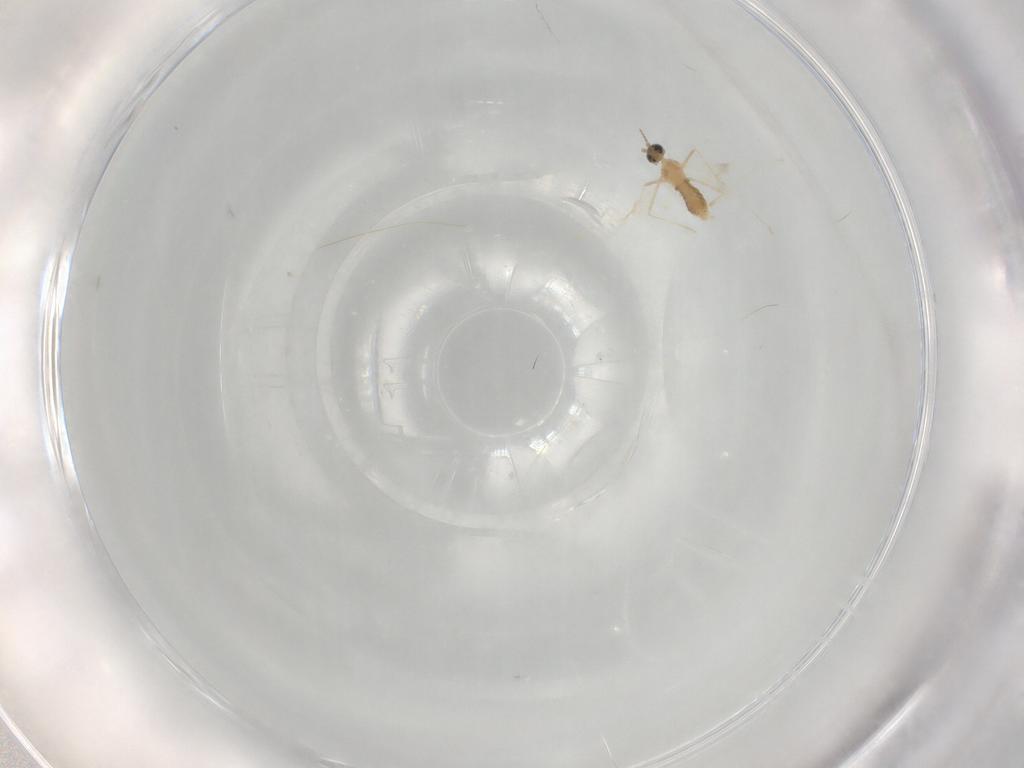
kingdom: Animalia
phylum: Arthropoda
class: Insecta
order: Diptera
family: Cecidomyiidae
